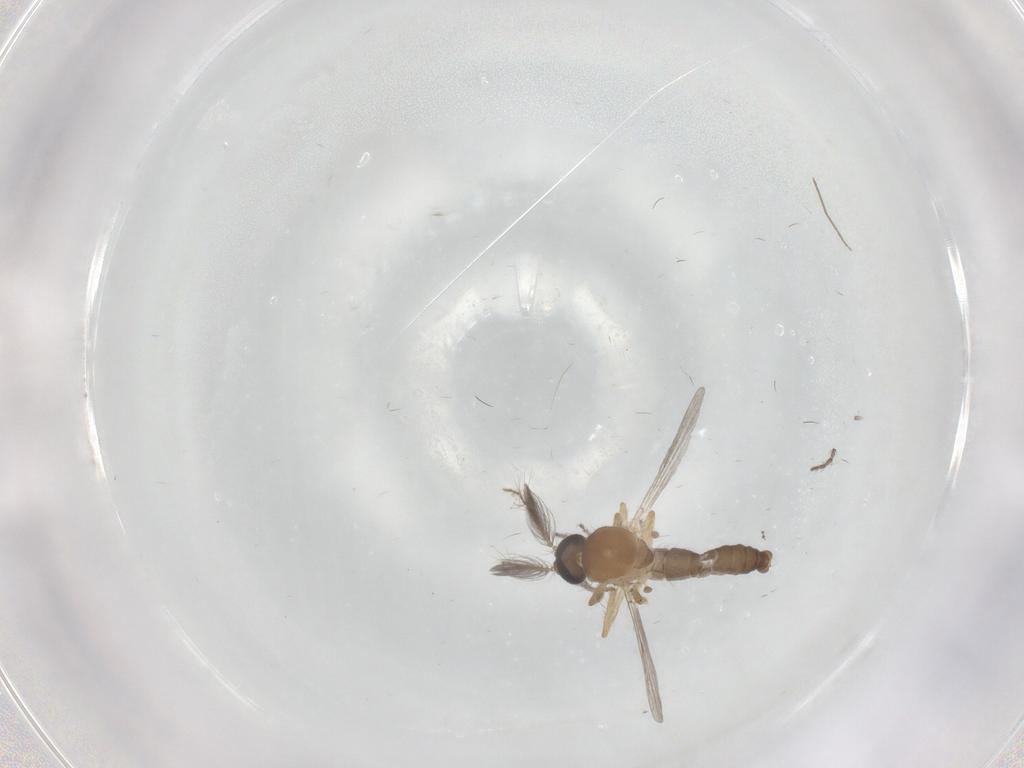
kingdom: Animalia
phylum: Arthropoda
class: Insecta
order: Diptera
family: Ceratopogonidae
